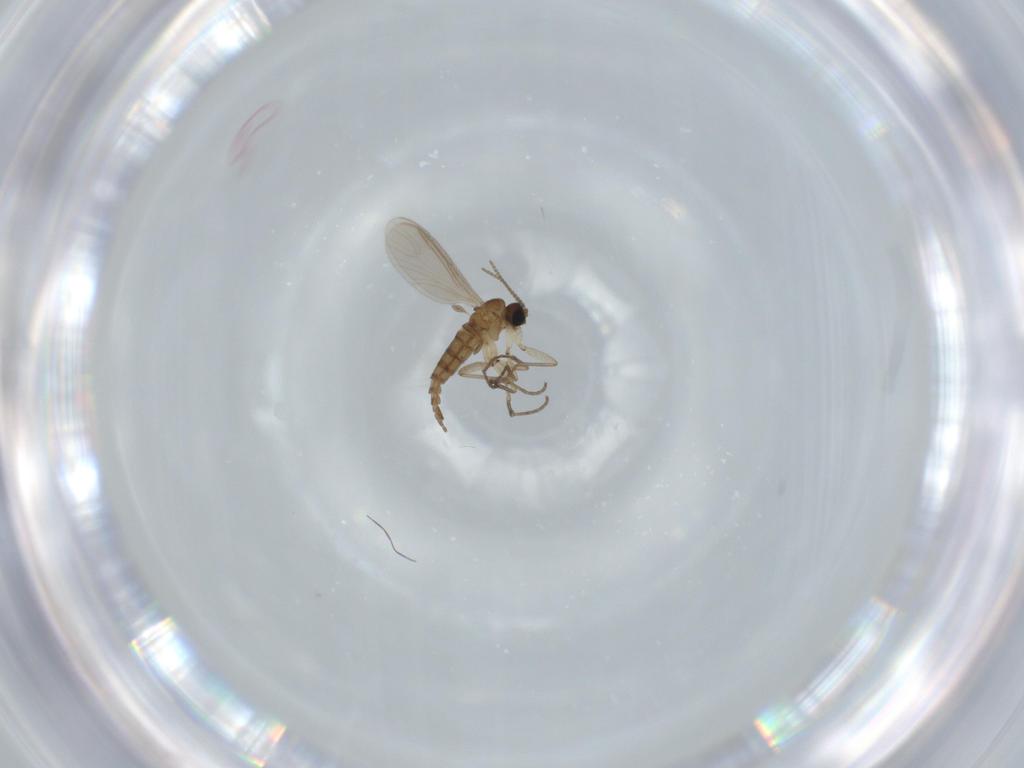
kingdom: Animalia
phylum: Arthropoda
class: Insecta
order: Diptera
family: Sciaridae
